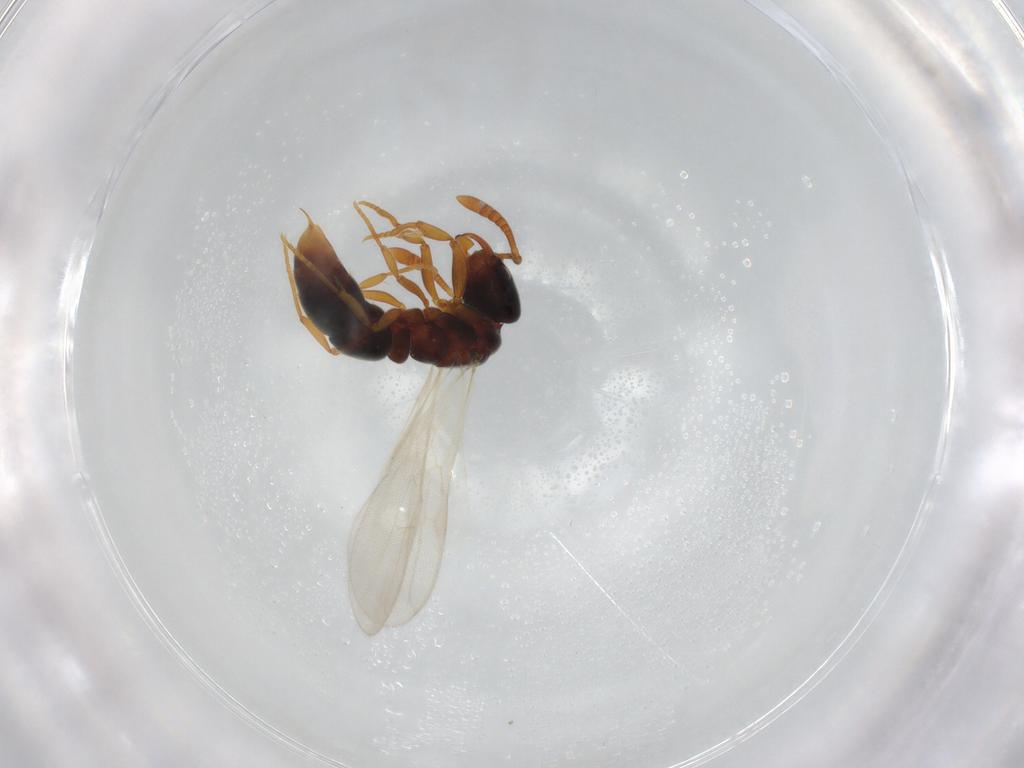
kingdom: Animalia
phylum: Arthropoda
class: Insecta
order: Hymenoptera
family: Formicidae
